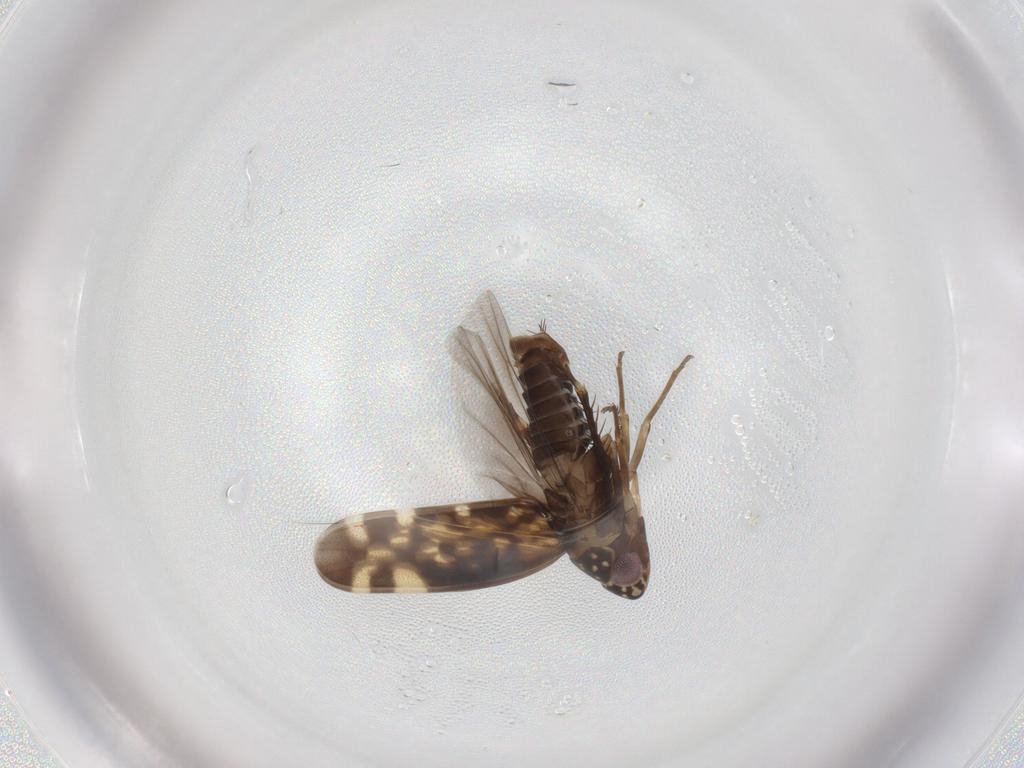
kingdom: Animalia
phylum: Arthropoda
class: Insecta
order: Hemiptera
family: Cicadellidae
